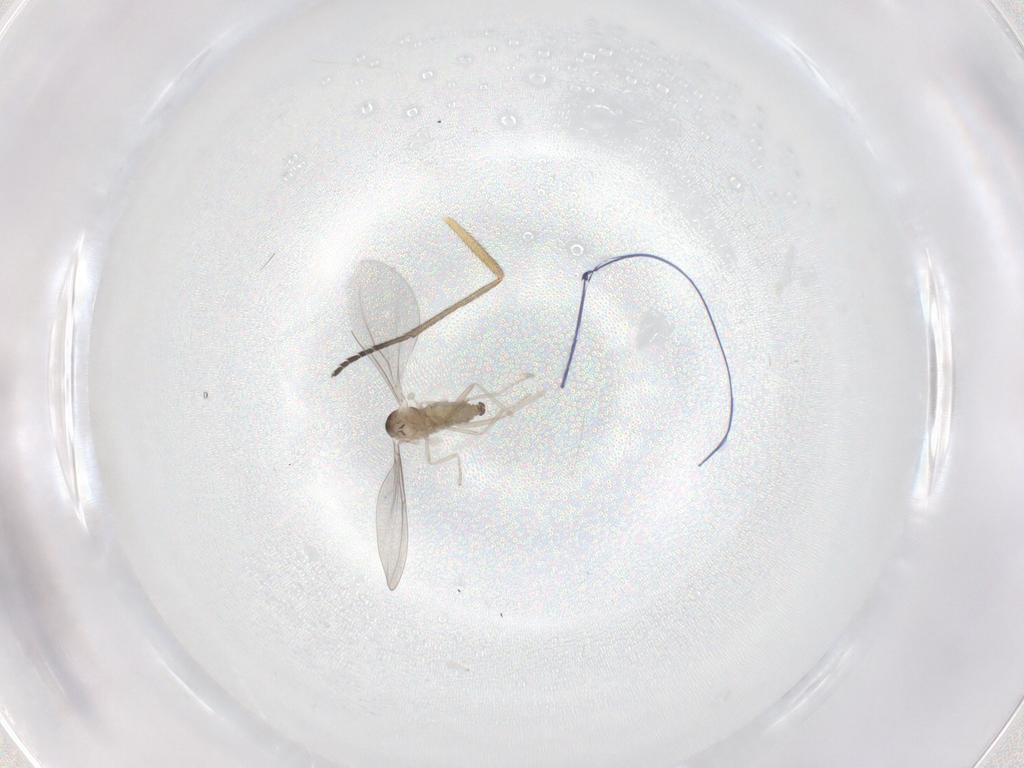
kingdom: Animalia
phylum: Arthropoda
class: Insecta
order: Diptera
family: Cecidomyiidae
